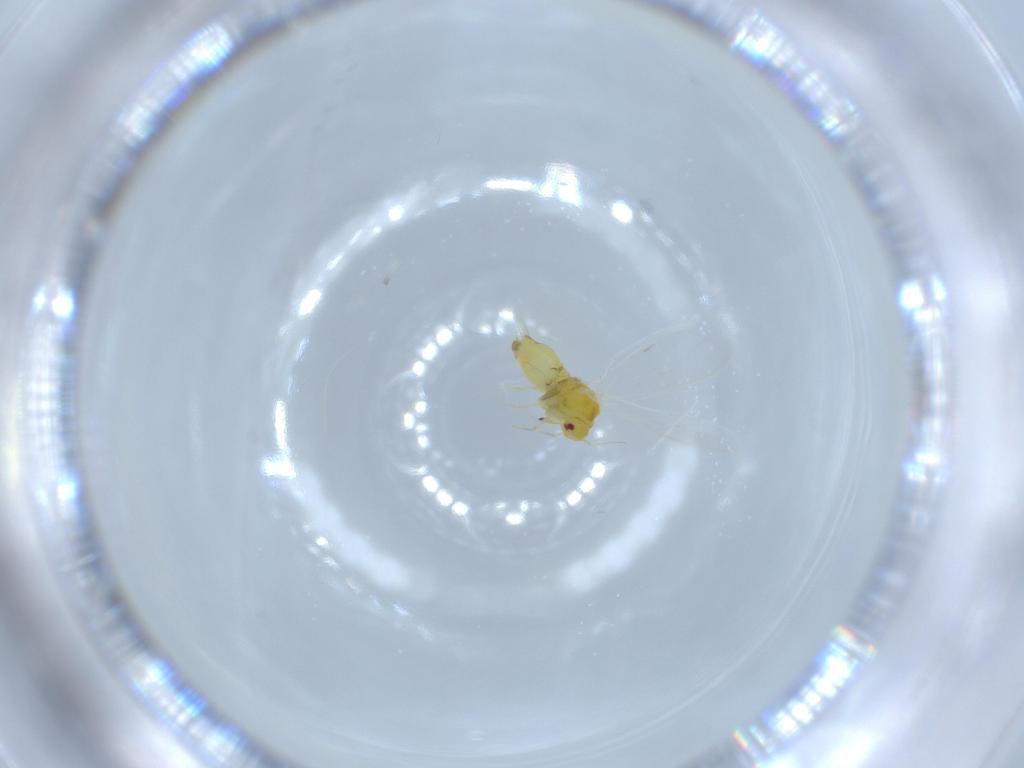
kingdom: Animalia
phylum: Arthropoda
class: Insecta
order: Hemiptera
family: Aleyrodidae
